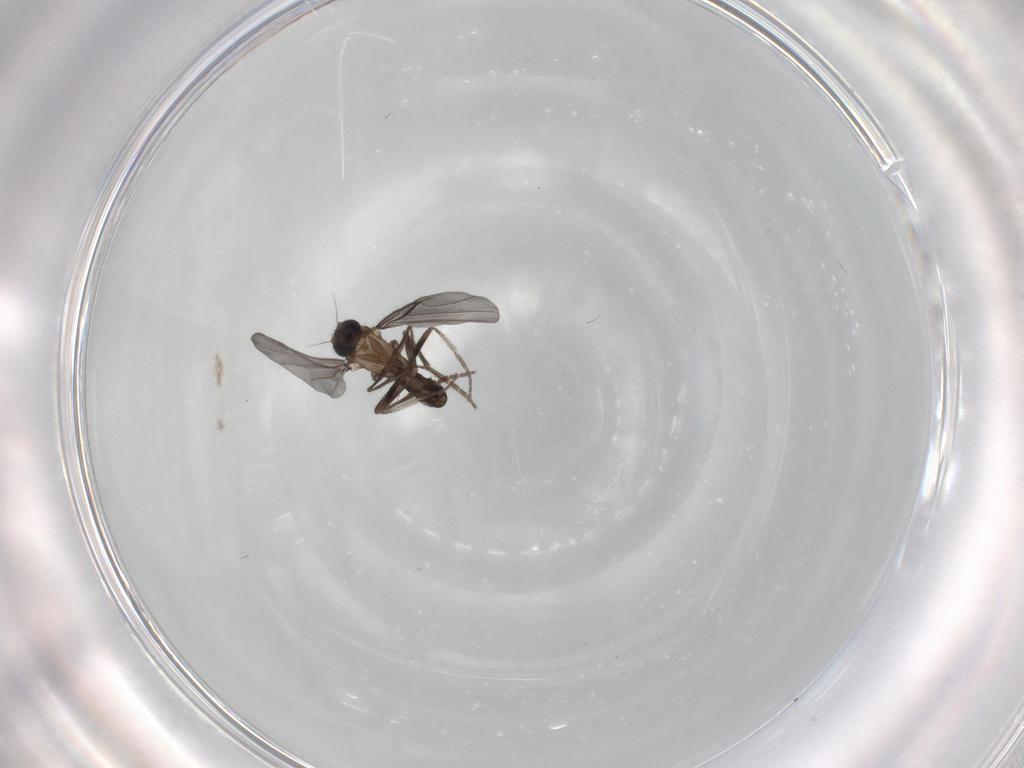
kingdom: Animalia
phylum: Arthropoda
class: Insecta
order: Diptera
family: Phoridae
